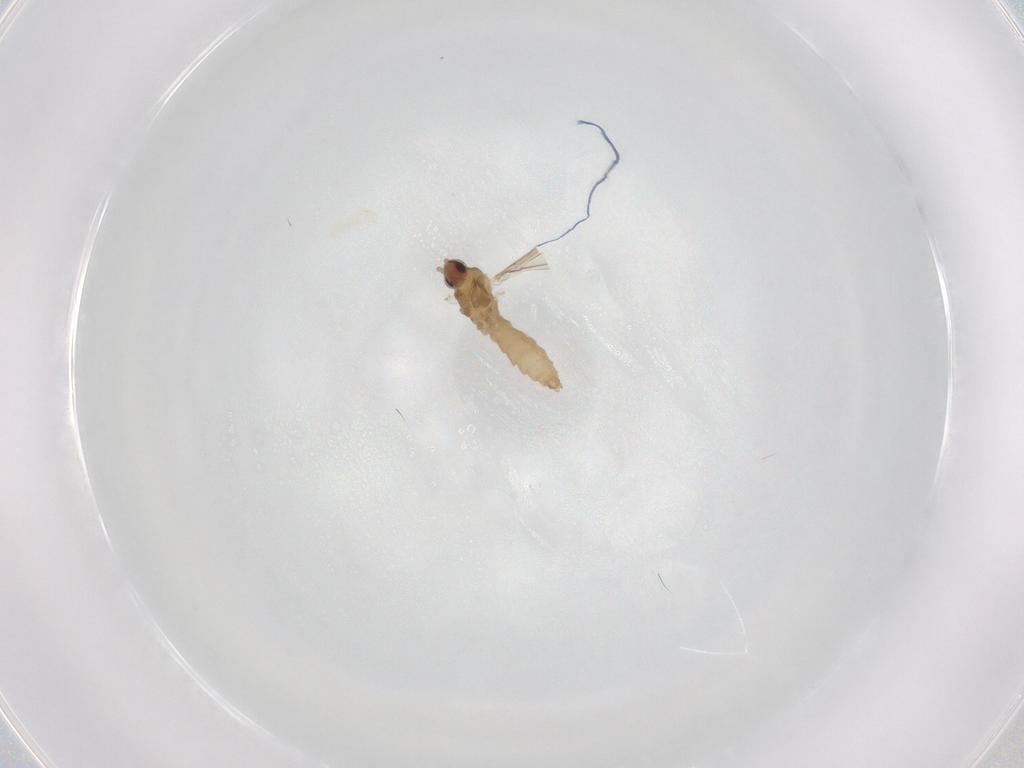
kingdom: Animalia
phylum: Arthropoda
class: Insecta
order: Diptera
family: Cecidomyiidae
